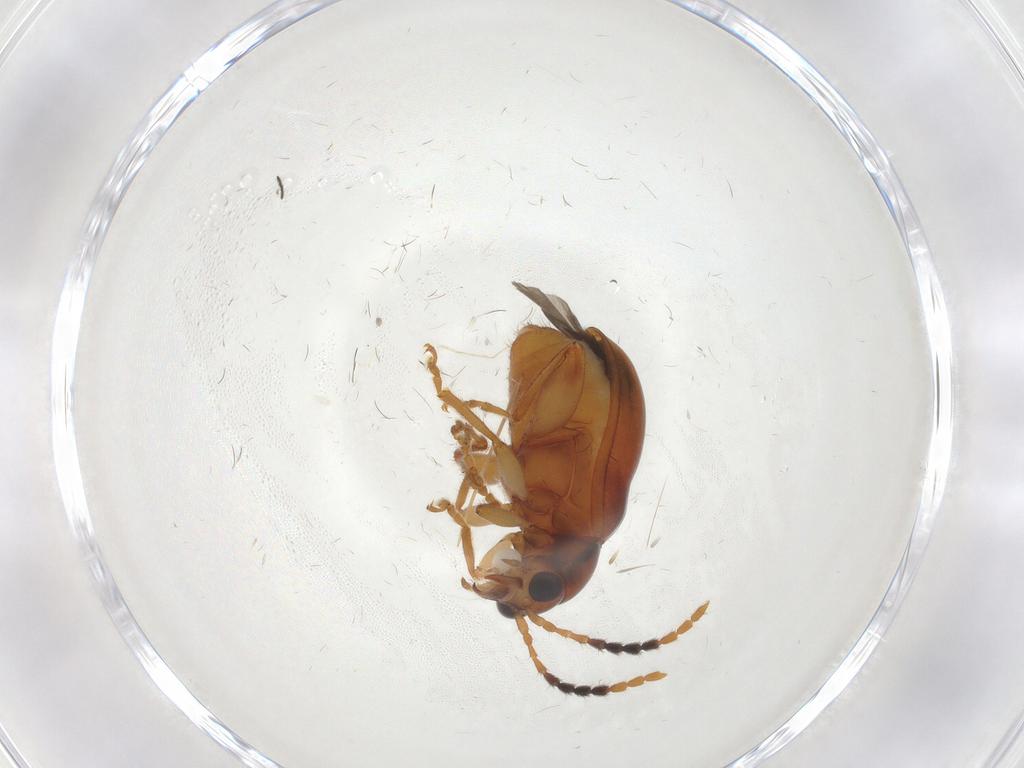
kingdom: Animalia
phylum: Arthropoda
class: Insecta
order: Coleoptera
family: Chrysomelidae
